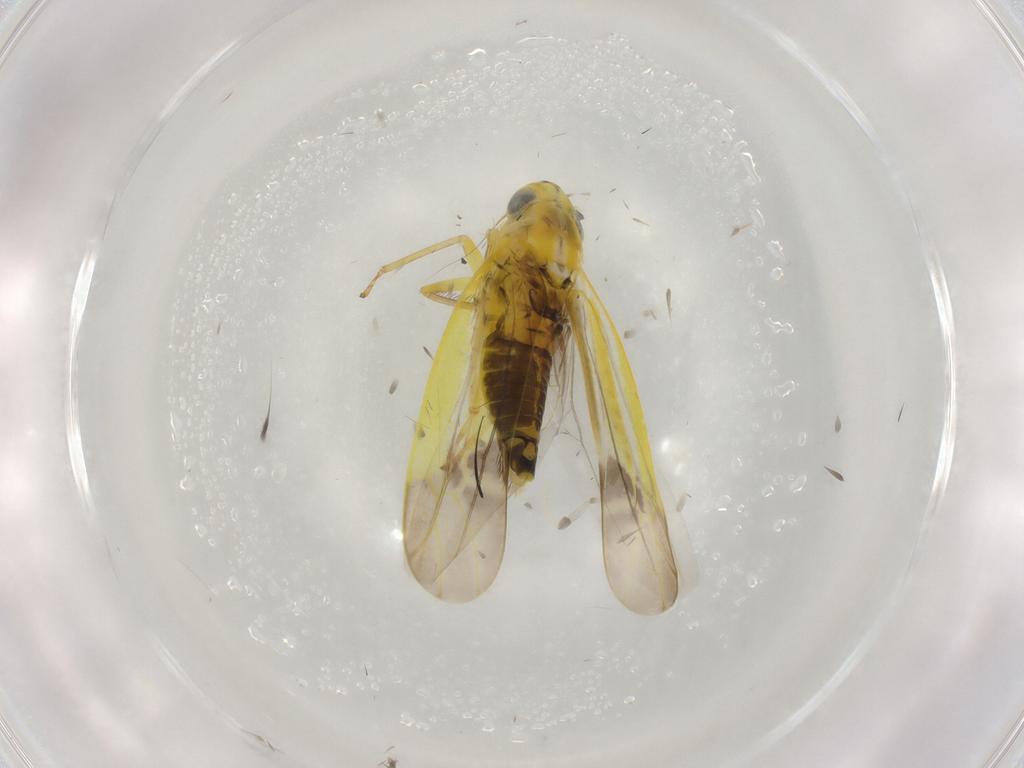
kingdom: Animalia
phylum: Arthropoda
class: Insecta
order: Hemiptera
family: Cicadellidae
